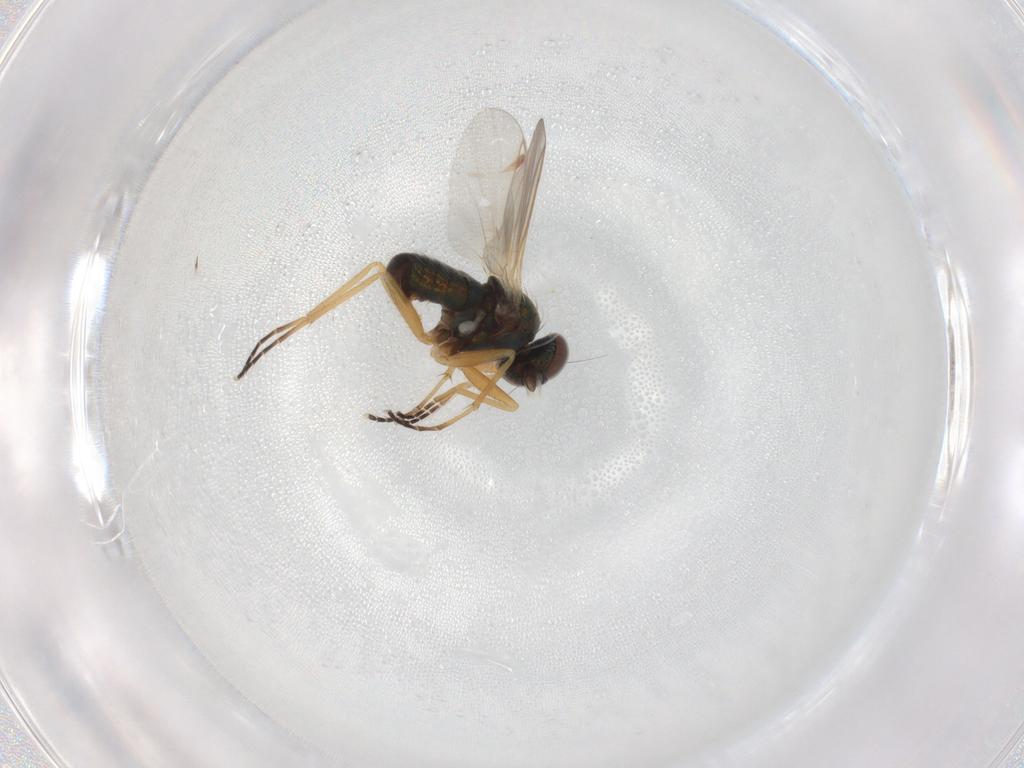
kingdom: Animalia
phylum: Arthropoda
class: Insecta
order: Diptera
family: Dolichopodidae
